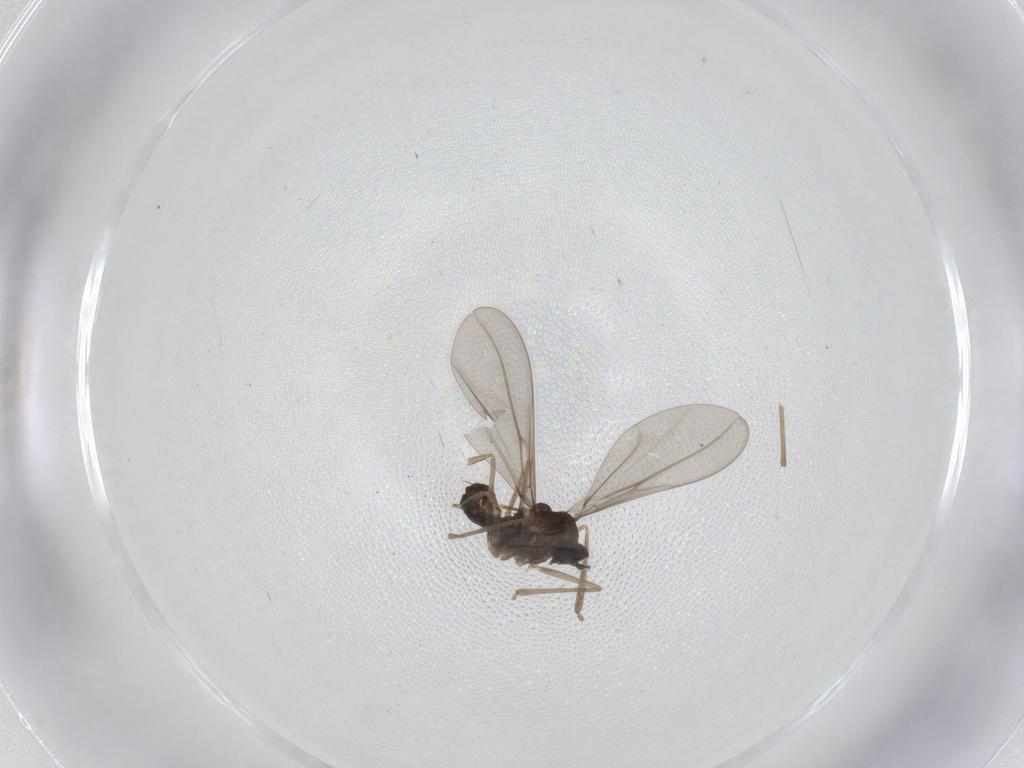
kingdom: Animalia
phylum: Arthropoda
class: Insecta
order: Diptera
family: Cecidomyiidae
